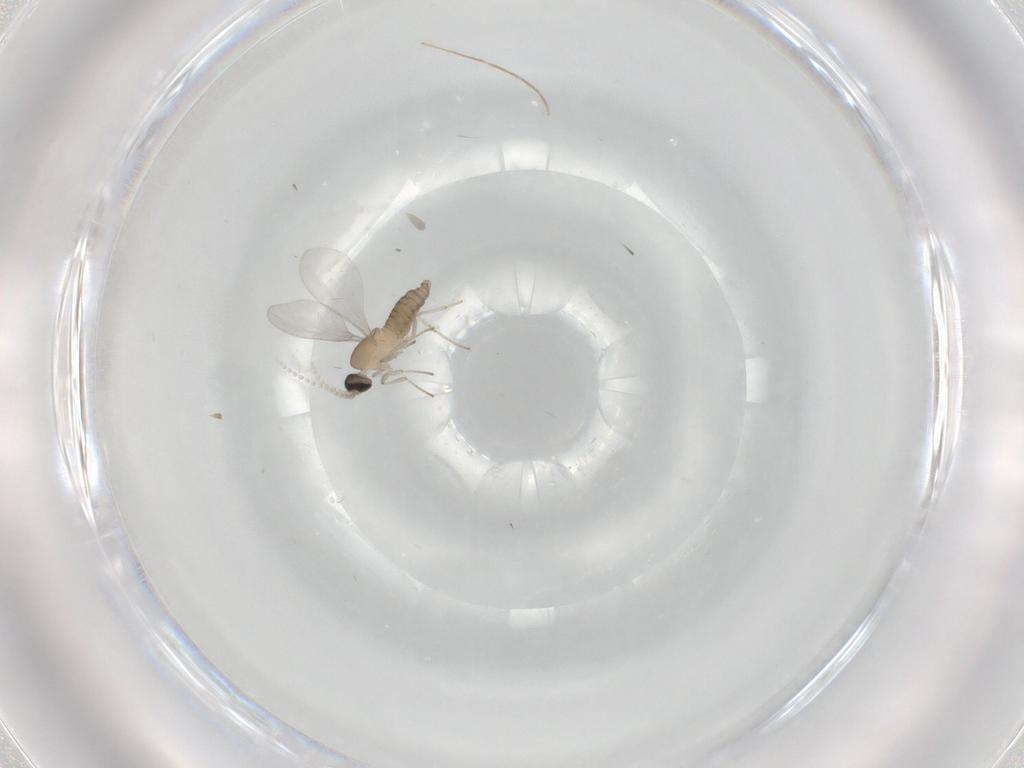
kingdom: Animalia
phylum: Arthropoda
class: Insecta
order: Diptera
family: Cecidomyiidae
